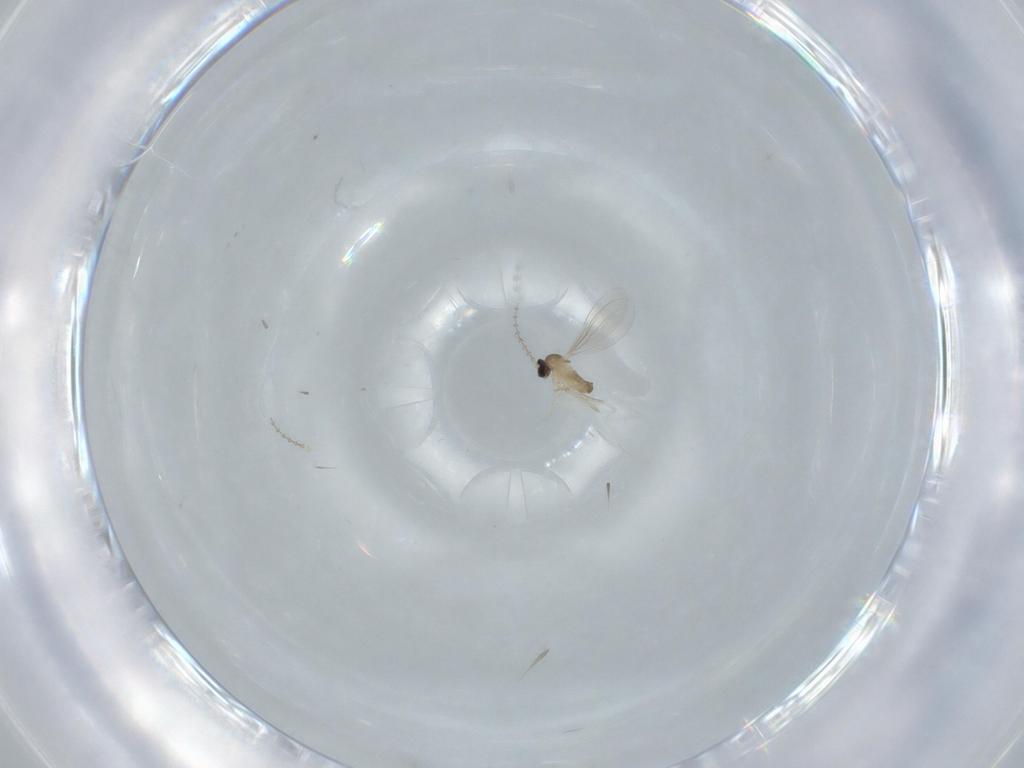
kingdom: Animalia
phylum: Arthropoda
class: Insecta
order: Diptera
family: Cecidomyiidae
